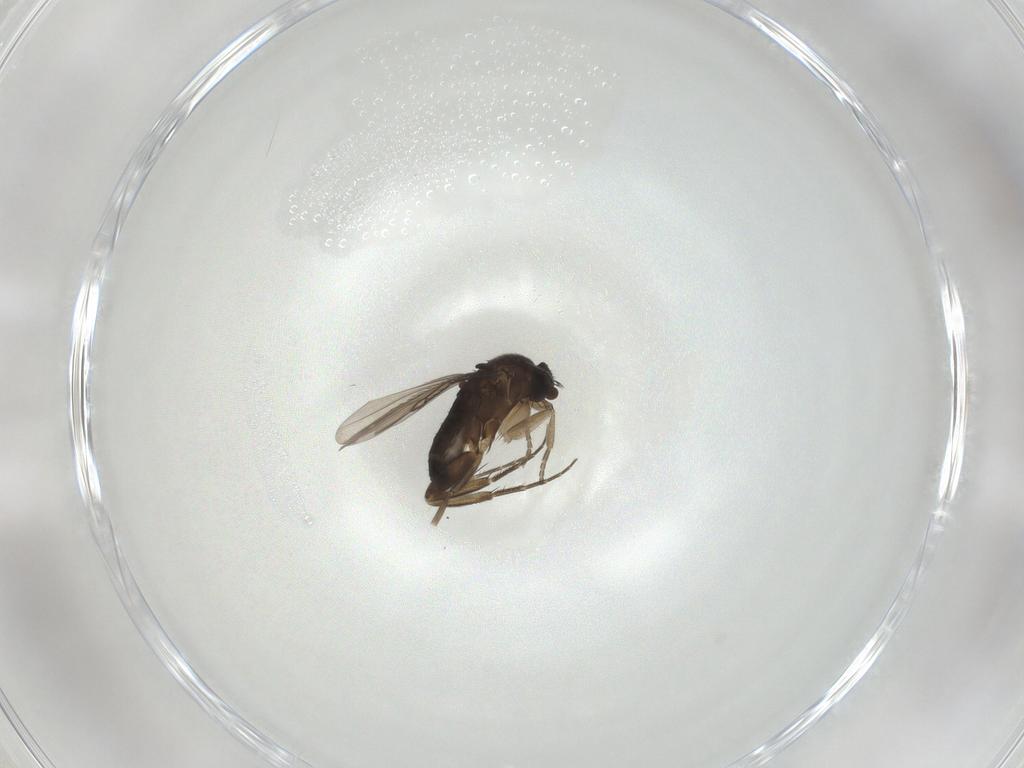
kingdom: Animalia
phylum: Arthropoda
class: Insecta
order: Diptera
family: Phoridae
